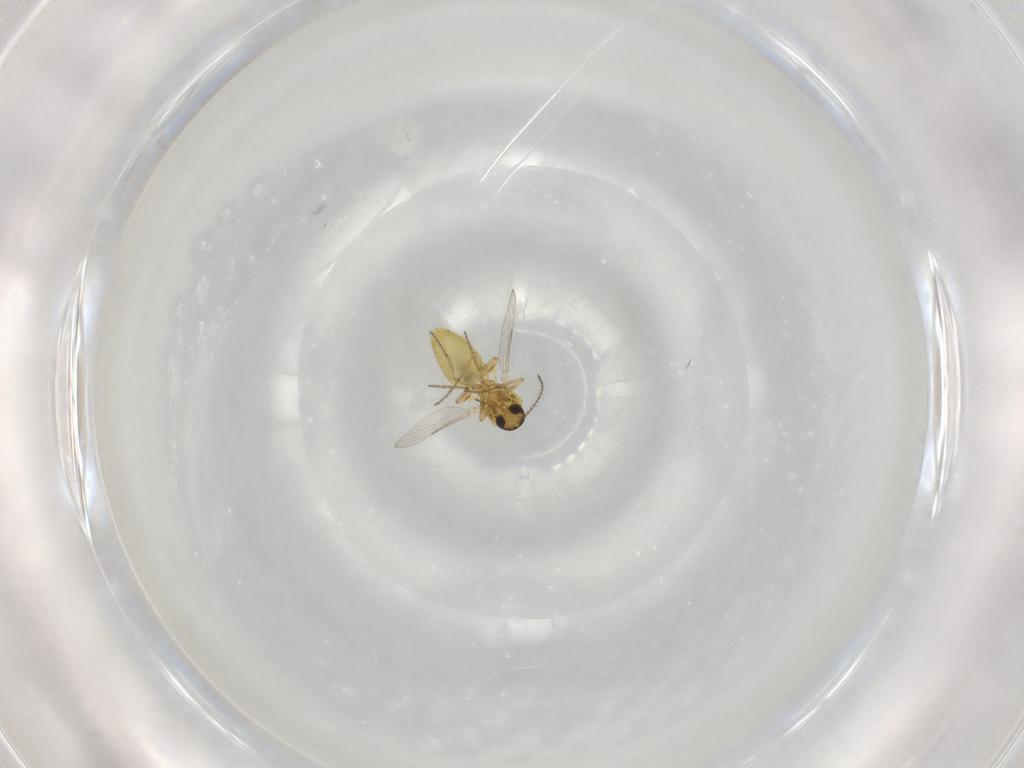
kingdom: Animalia
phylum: Arthropoda
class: Insecta
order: Diptera
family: Ceratopogonidae
